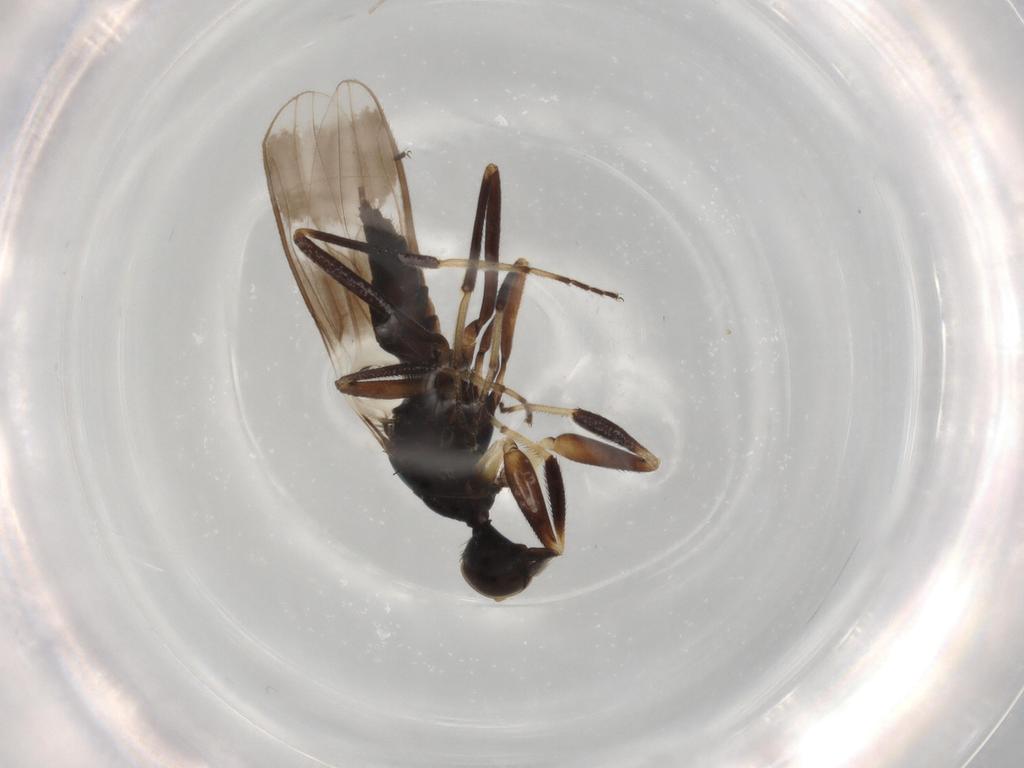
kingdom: Animalia
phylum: Arthropoda
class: Insecta
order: Diptera
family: Hybotidae
